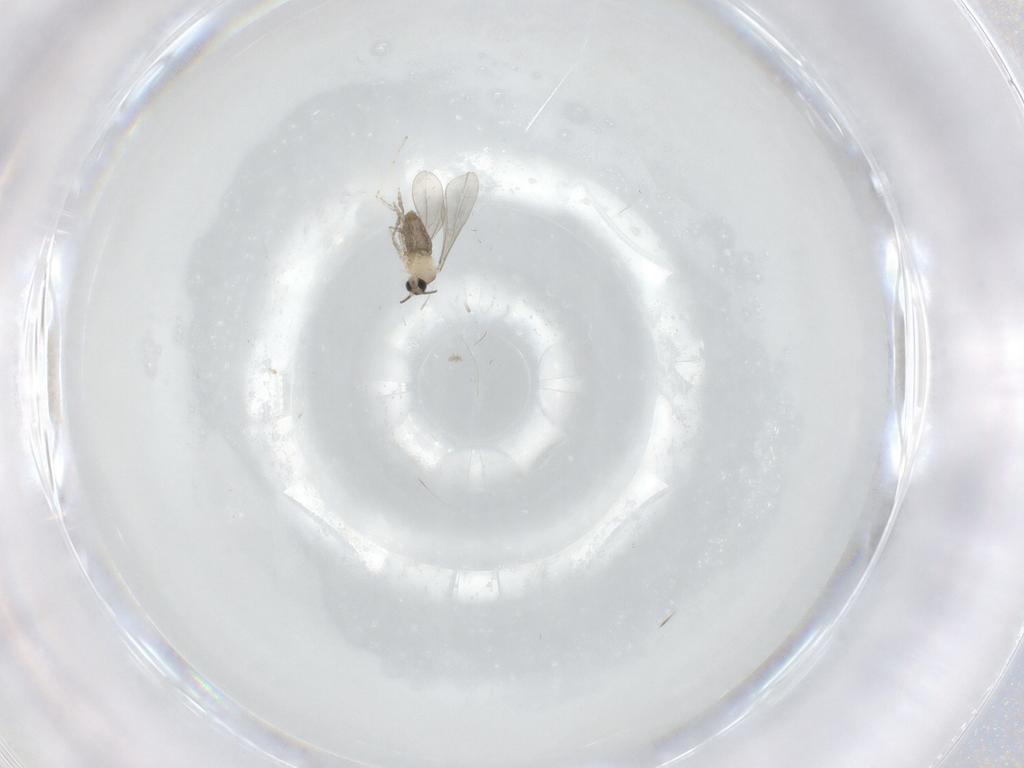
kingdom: Animalia
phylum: Arthropoda
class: Insecta
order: Diptera
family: Cecidomyiidae
